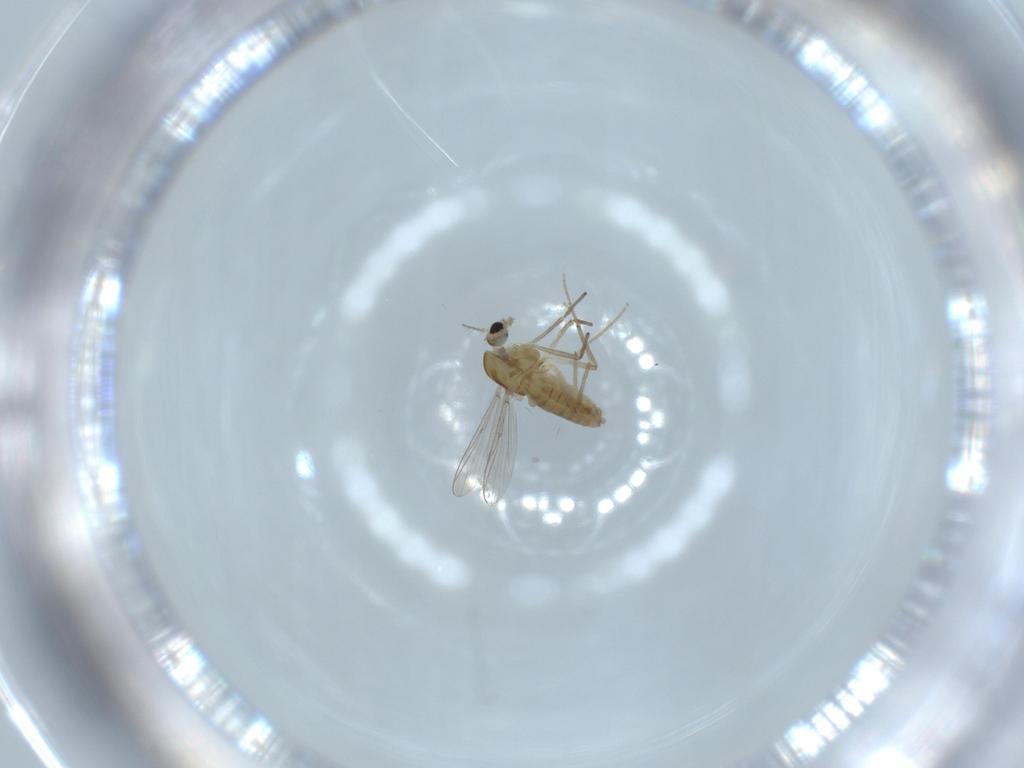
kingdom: Animalia
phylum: Arthropoda
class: Insecta
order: Diptera
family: Chironomidae
